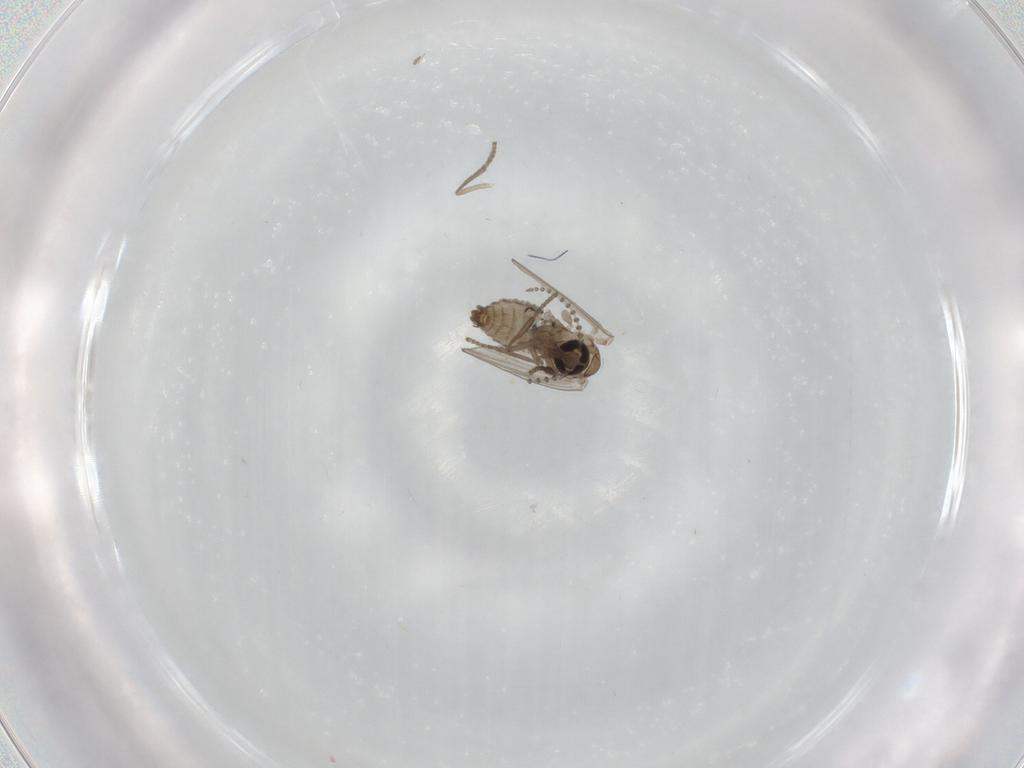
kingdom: Animalia
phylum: Arthropoda
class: Insecta
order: Diptera
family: Psychodidae
